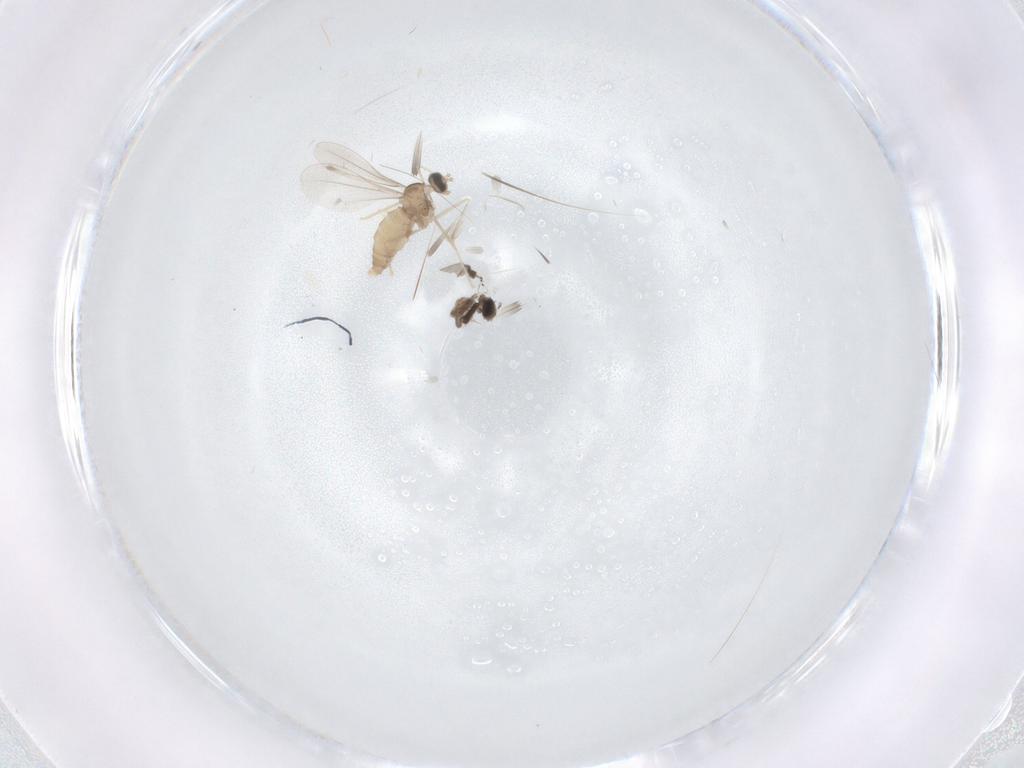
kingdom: Animalia
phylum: Arthropoda
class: Insecta
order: Diptera
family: Cecidomyiidae
